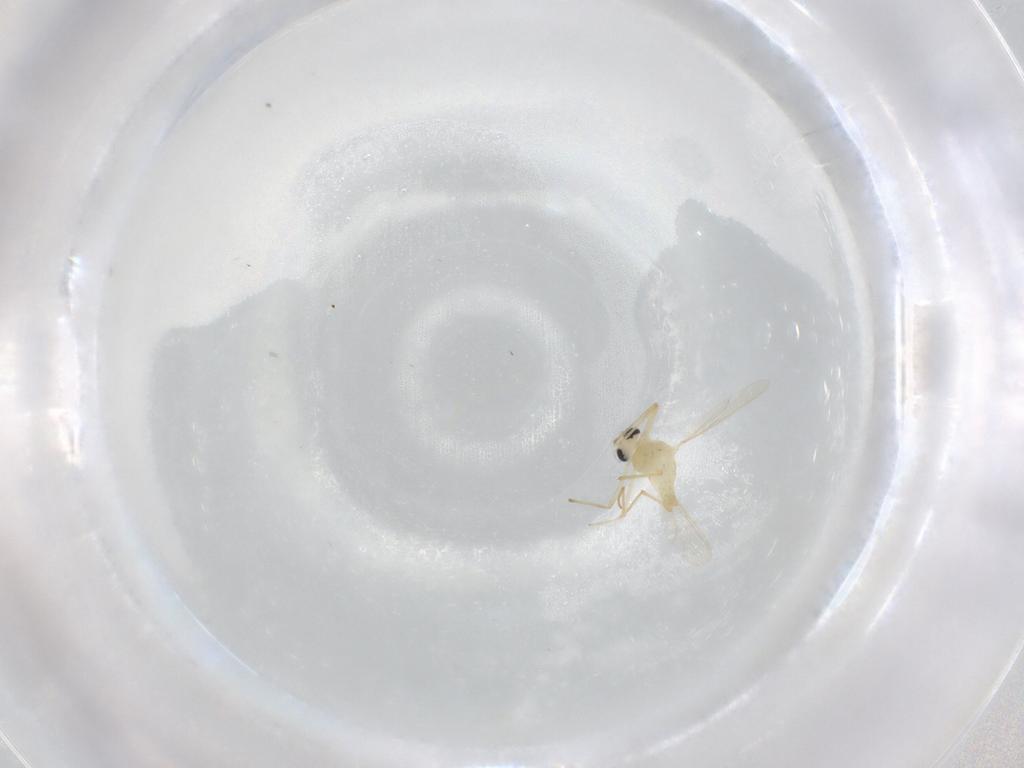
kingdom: Animalia
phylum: Arthropoda
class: Insecta
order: Diptera
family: Chironomidae
